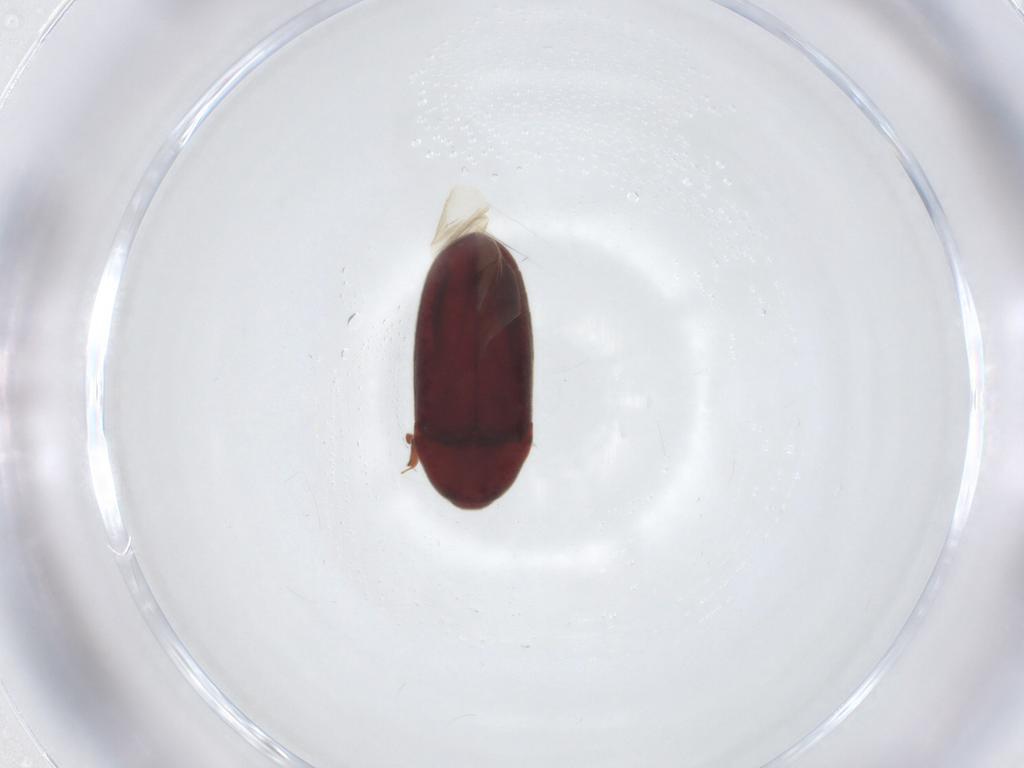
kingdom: Animalia
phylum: Arthropoda
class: Insecta
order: Coleoptera
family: Throscidae
